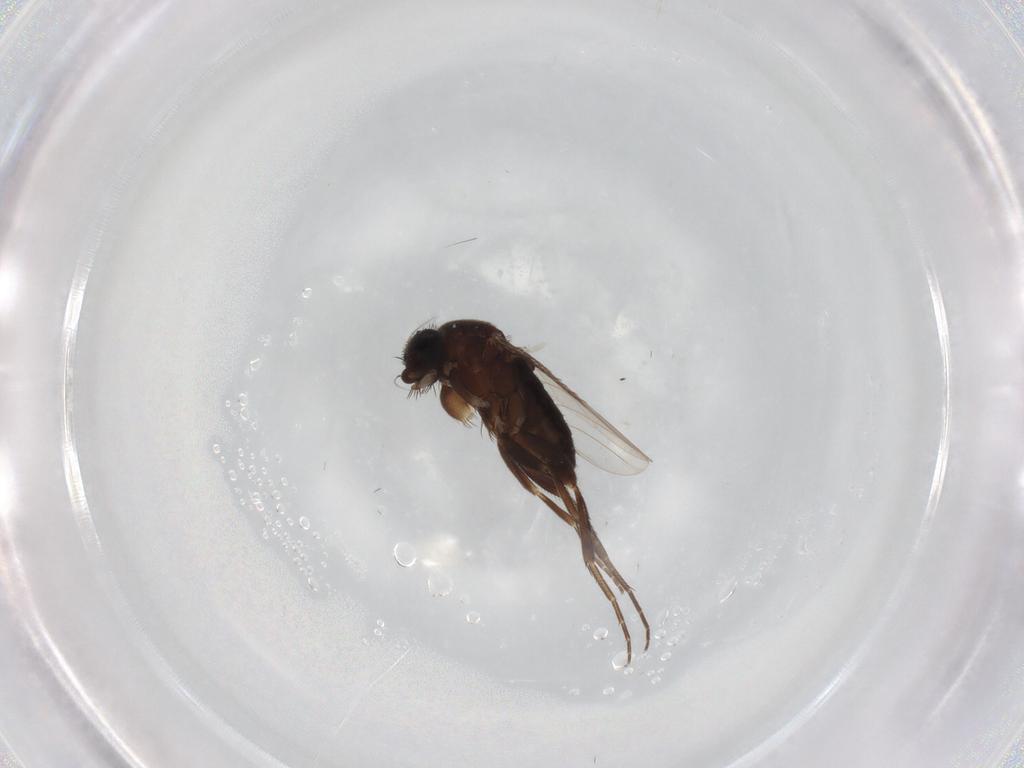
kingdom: Animalia
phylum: Arthropoda
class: Insecta
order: Diptera
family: Phoridae
